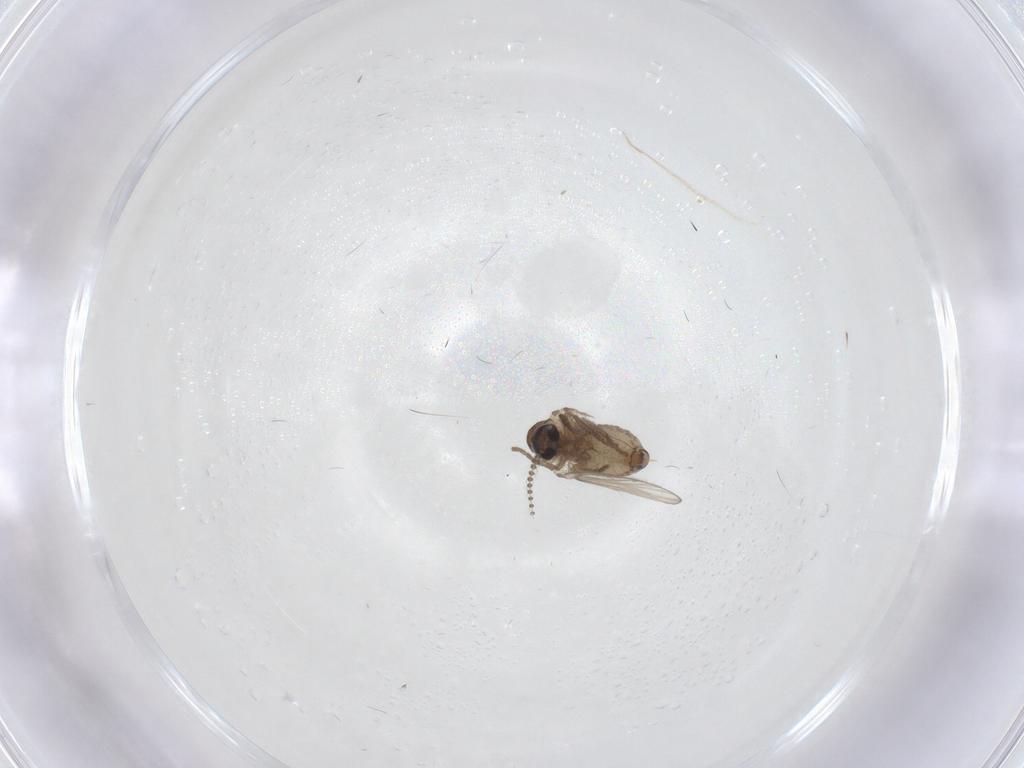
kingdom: Animalia
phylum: Arthropoda
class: Insecta
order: Diptera
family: Psychodidae
